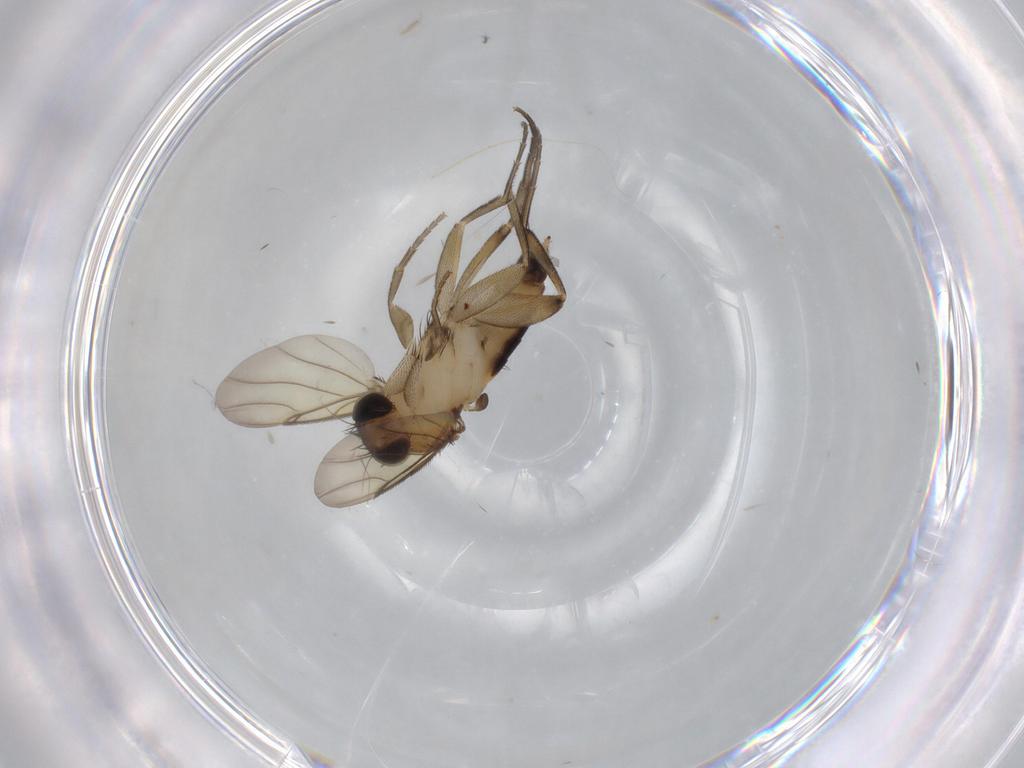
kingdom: Animalia
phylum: Arthropoda
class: Insecta
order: Diptera
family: Phoridae
